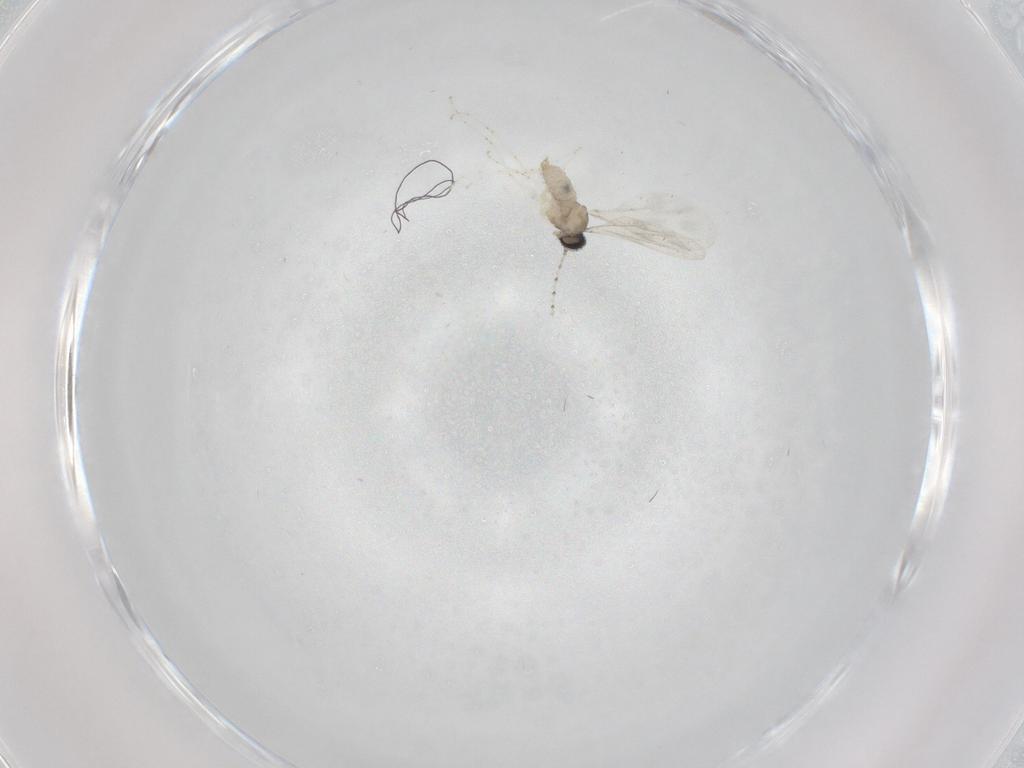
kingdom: Animalia
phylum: Arthropoda
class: Insecta
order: Diptera
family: Cecidomyiidae
